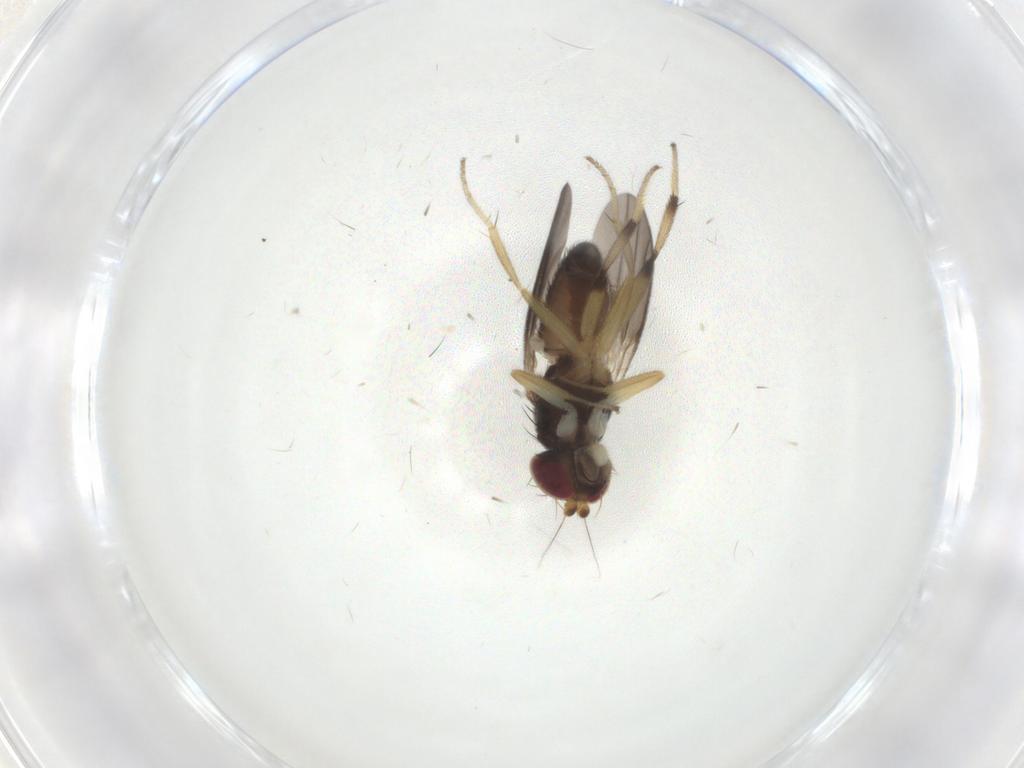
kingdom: Animalia
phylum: Arthropoda
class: Insecta
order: Diptera
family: Clusiidae
